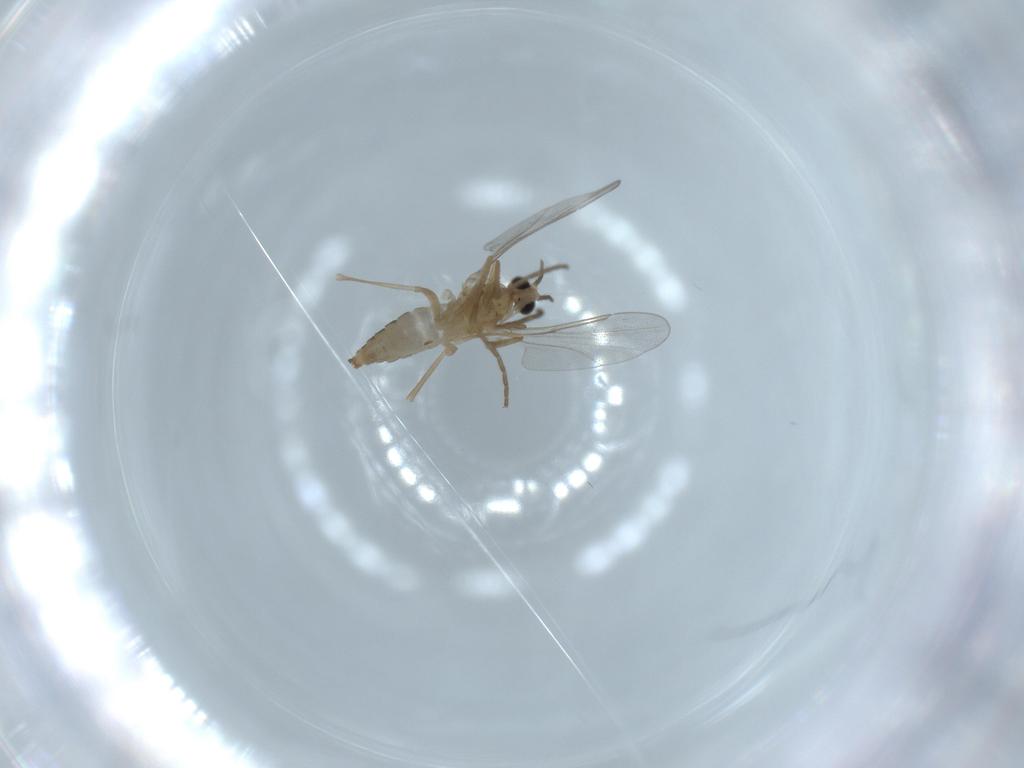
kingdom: Animalia
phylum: Arthropoda
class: Insecta
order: Diptera
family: Cecidomyiidae
